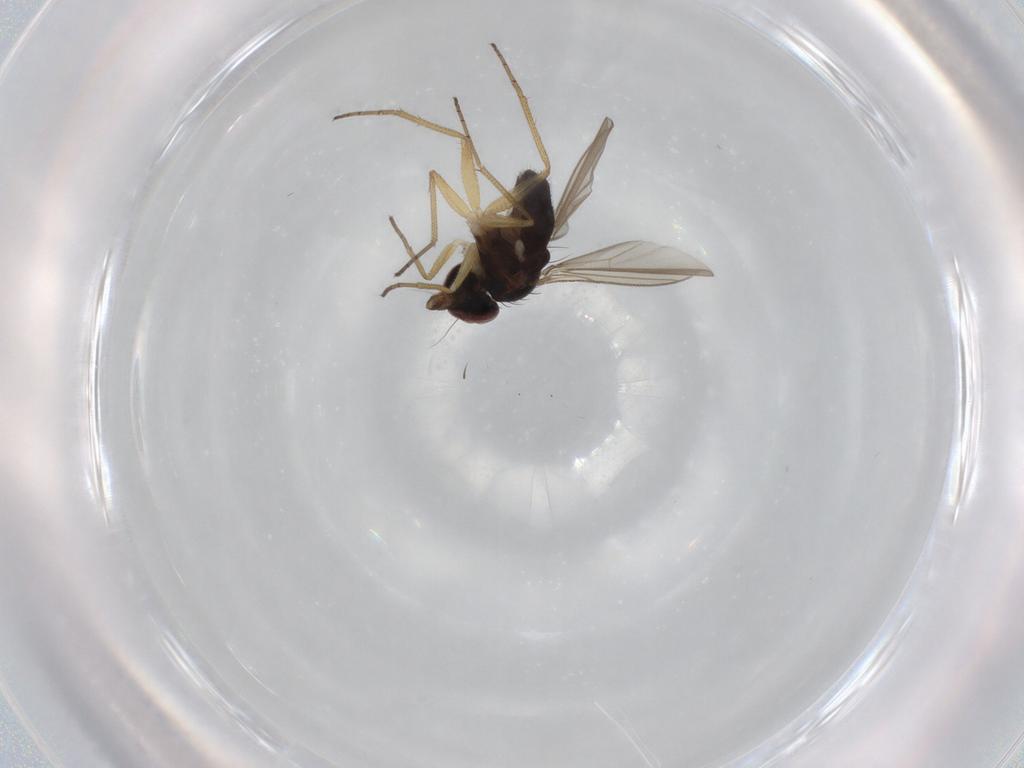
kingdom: Animalia
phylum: Arthropoda
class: Insecta
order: Diptera
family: Dolichopodidae
